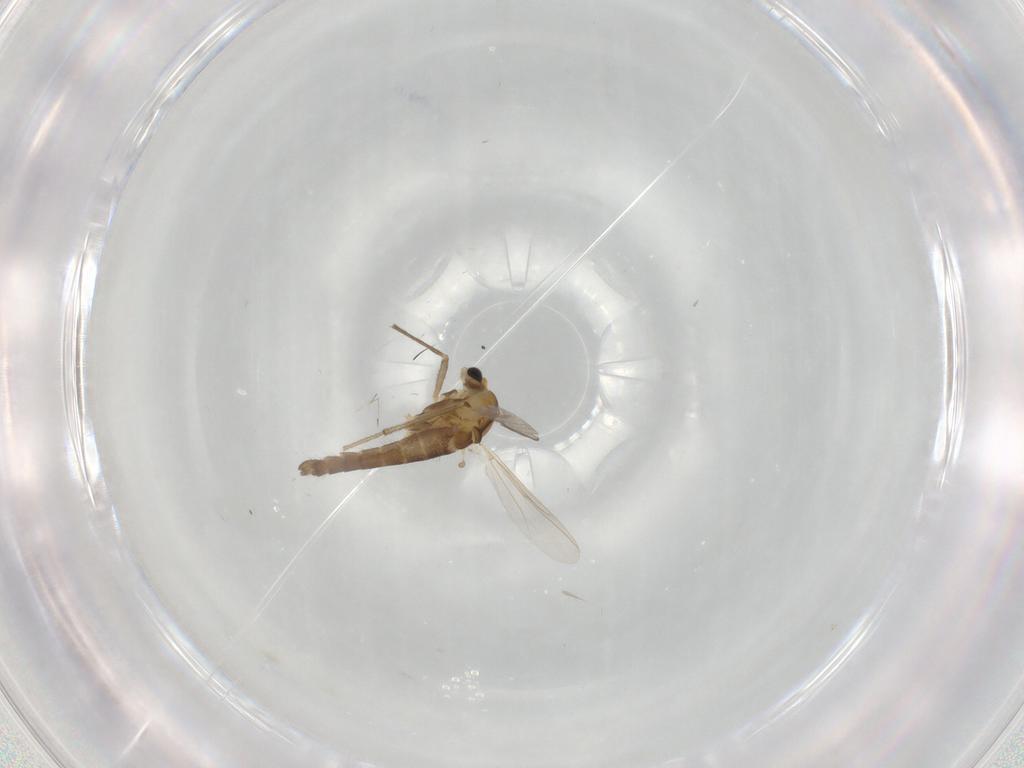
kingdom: Animalia
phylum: Arthropoda
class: Insecta
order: Diptera
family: Chironomidae
